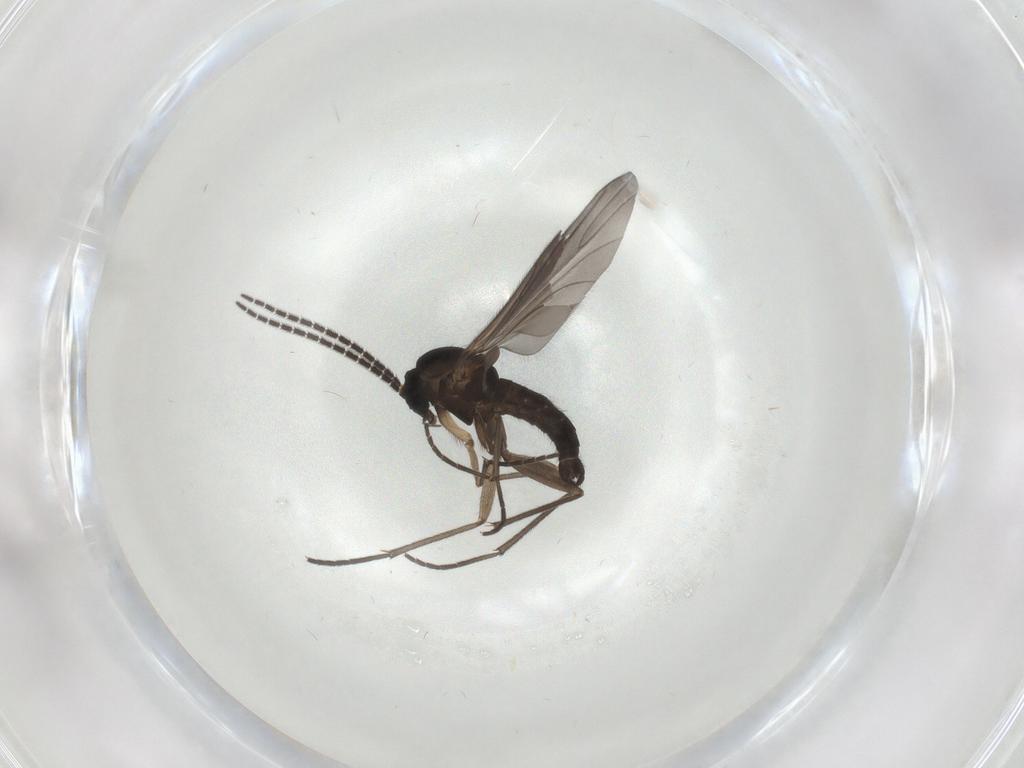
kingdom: Animalia
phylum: Arthropoda
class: Insecta
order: Diptera
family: Sciaridae
